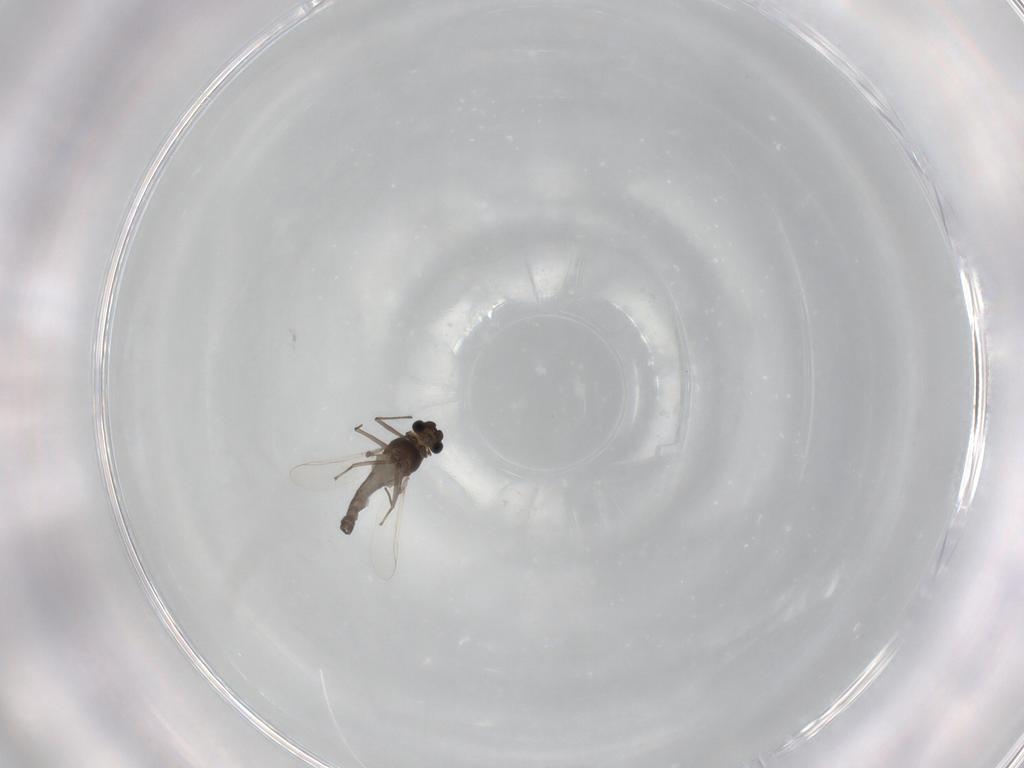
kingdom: Animalia
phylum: Arthropoda
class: Insecta
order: Diptera
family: Chironomidae
